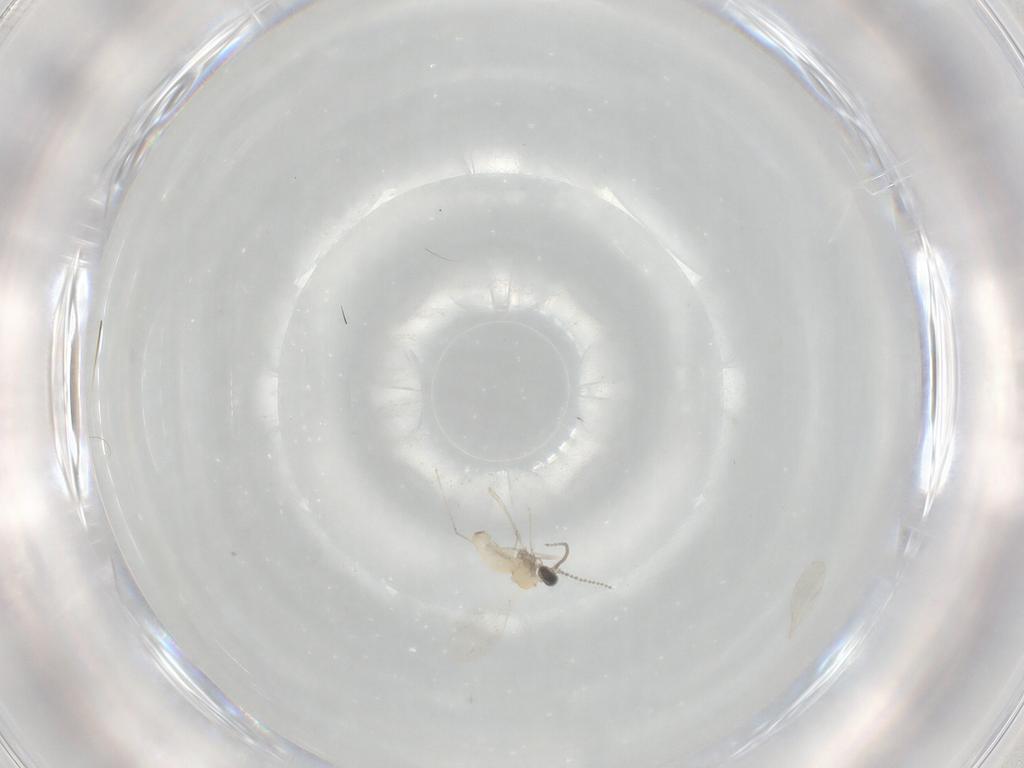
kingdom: Animalia
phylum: Arthropoda
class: Insecta
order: Diptera
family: Cecidomyiidae
